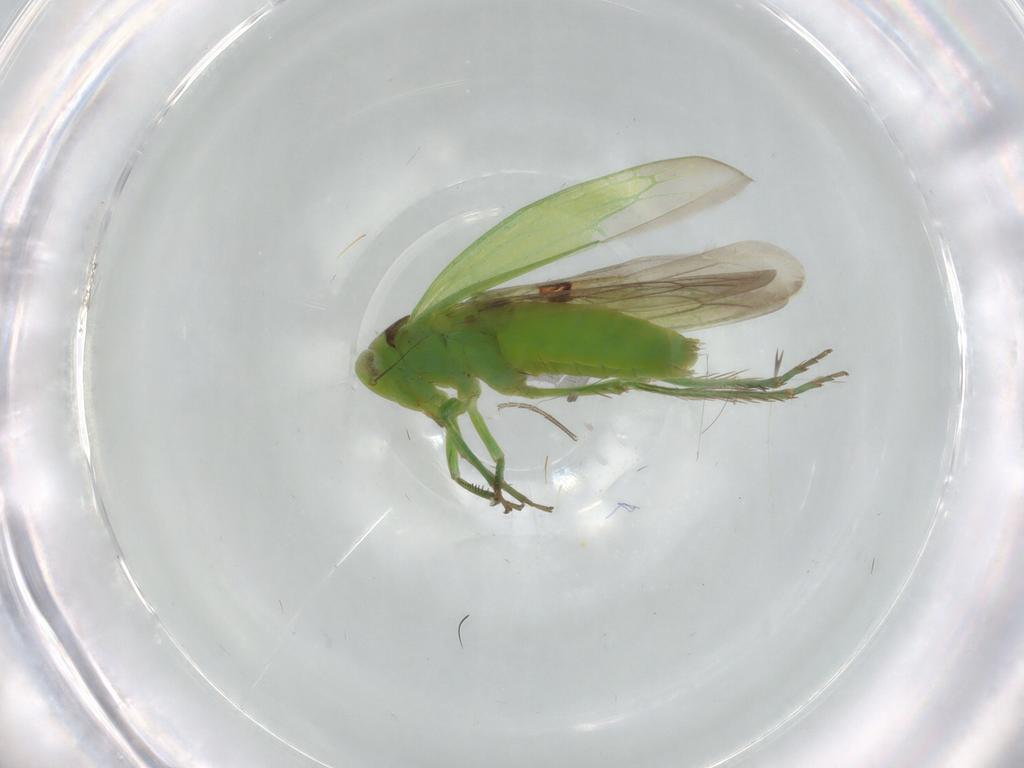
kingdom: Animalia
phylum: Arthropoda
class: Insecta
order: Hemiptera
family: Cicadellidae
